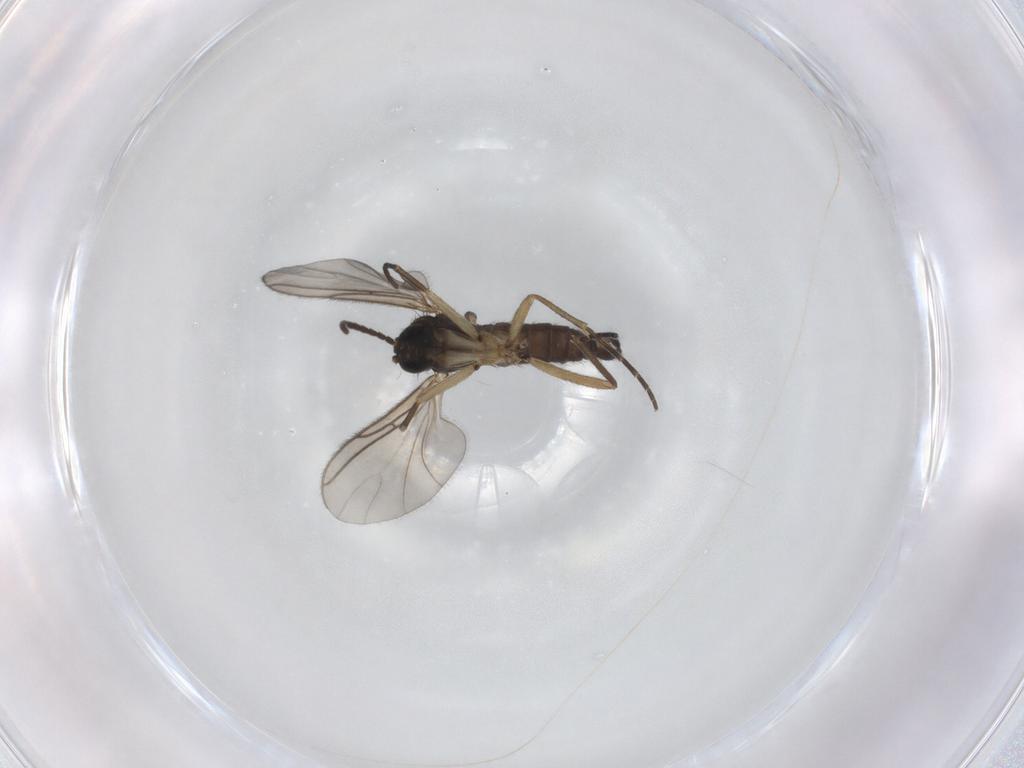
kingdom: Animalia
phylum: Arthropoda
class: Insecta
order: Diptera
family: Sciaridae
